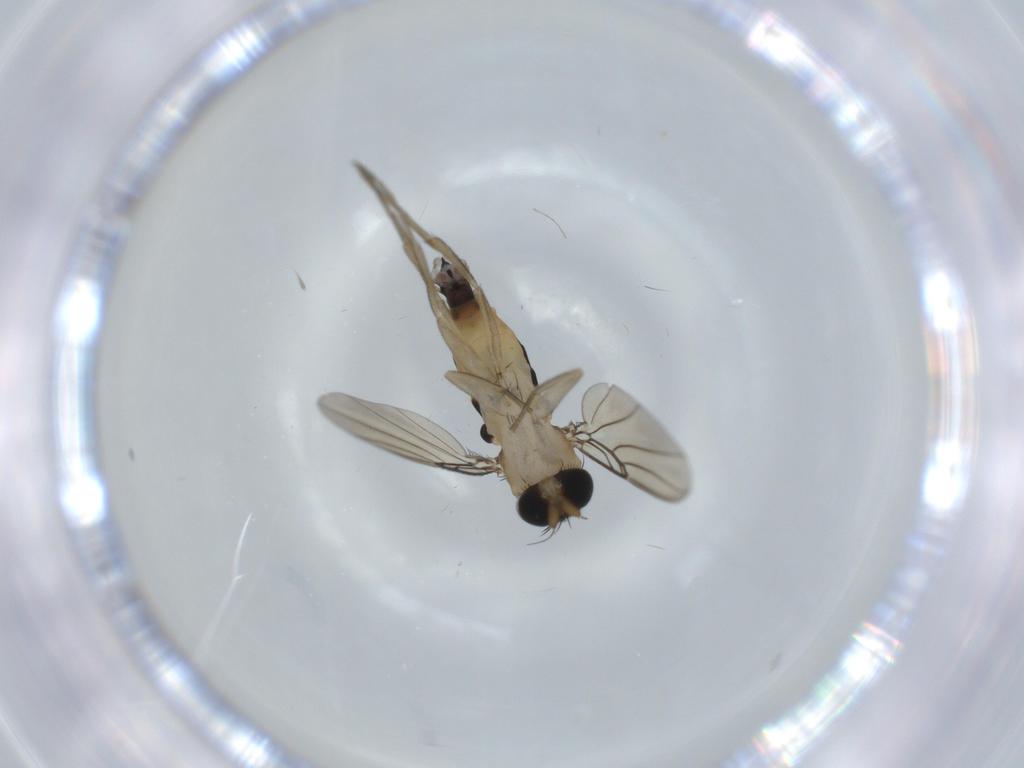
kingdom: Animalia
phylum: Arthropoda
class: Insecta
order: Diptera
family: Phoridae
